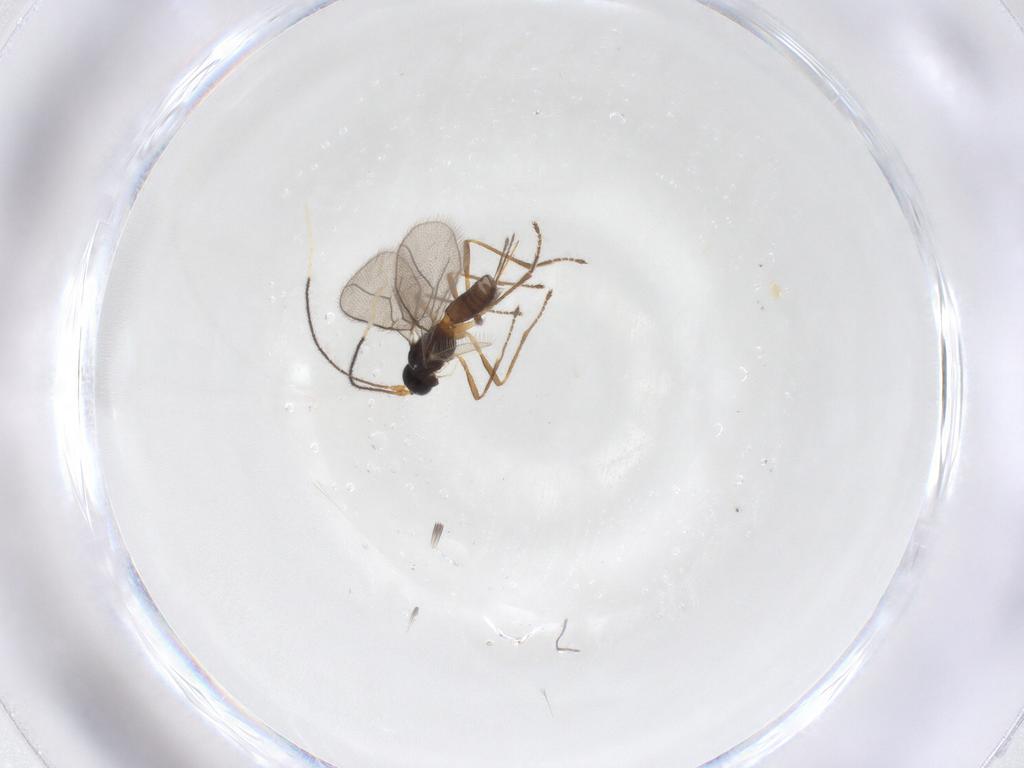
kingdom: Animalia
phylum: Arthropoda
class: Insecta
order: Hymenoptera
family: Braconidae
